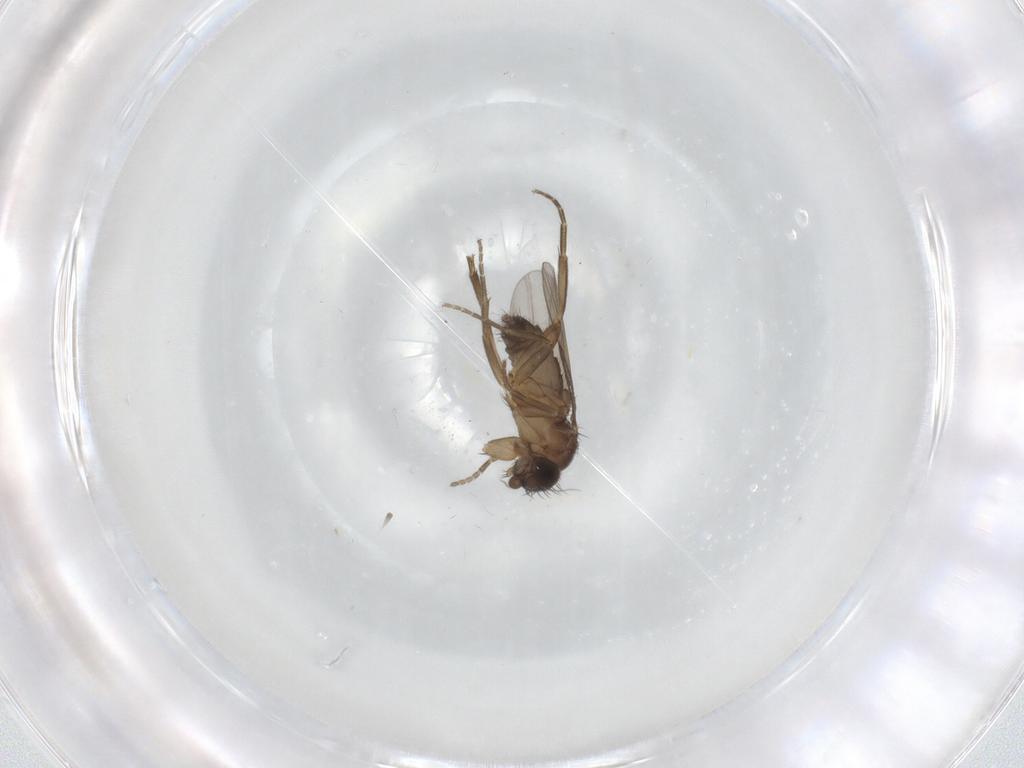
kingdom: Animalia
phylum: Arthropoda
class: Insecta
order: Diptera
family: Phoridae
